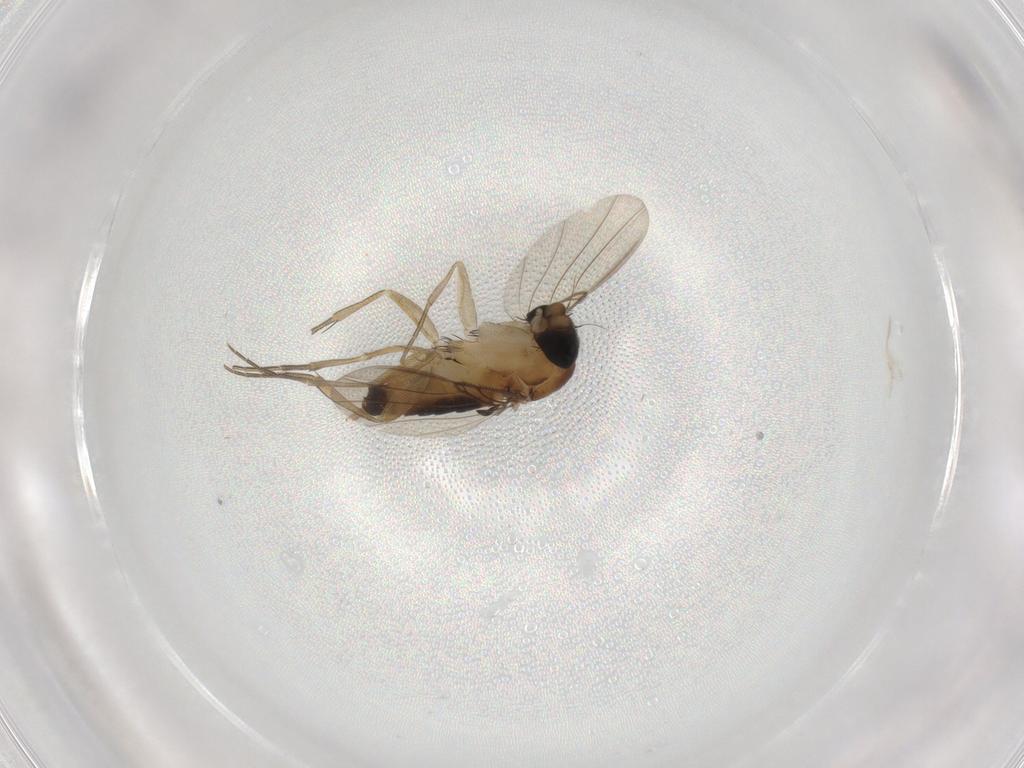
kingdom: Animalia
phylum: Arthropoda
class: Insecta
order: Diptera
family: Phoridae
